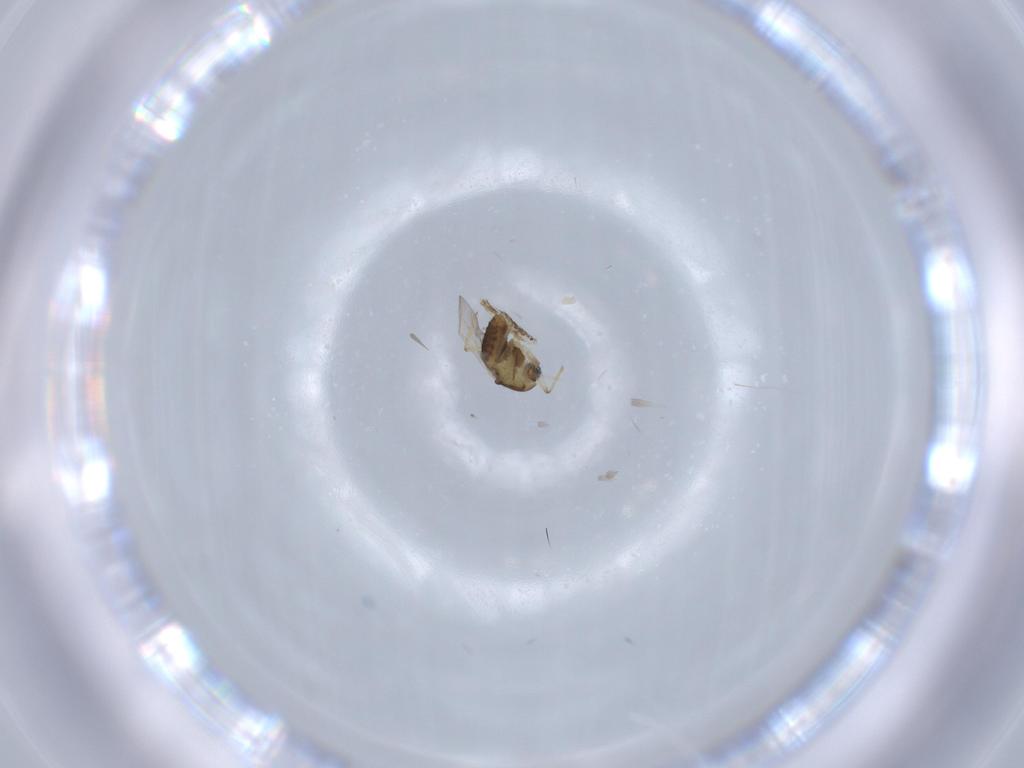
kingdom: Animalia
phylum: Arthropoda
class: Insecta
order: Diptera
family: Chironomidae
